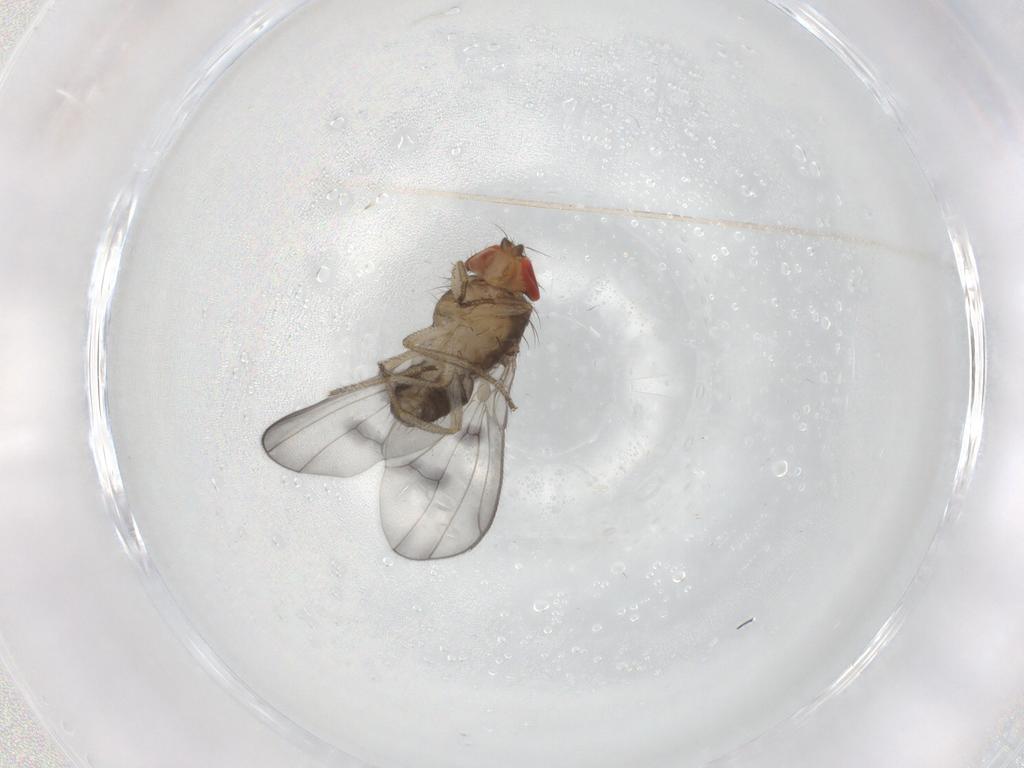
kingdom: Animalia
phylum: Arthropoda
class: Insecta
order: Diptera
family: Drosophilidae
